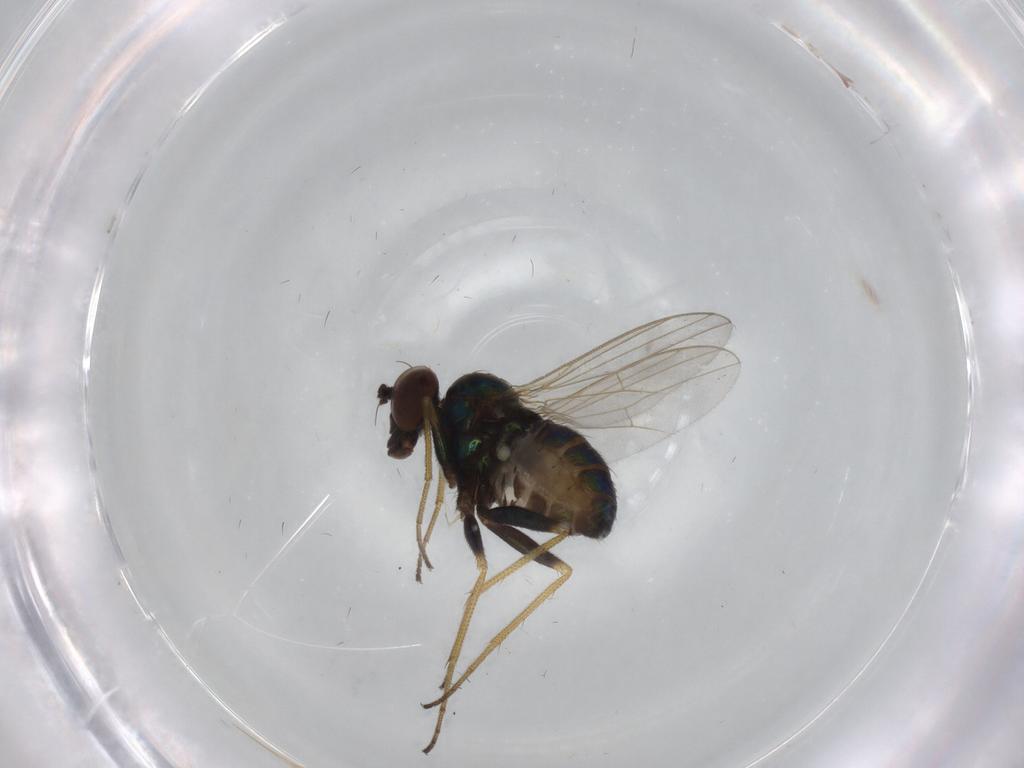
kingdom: Animalia
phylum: Arthropoda
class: Insecta
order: Diptera
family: Dolichopodidae
